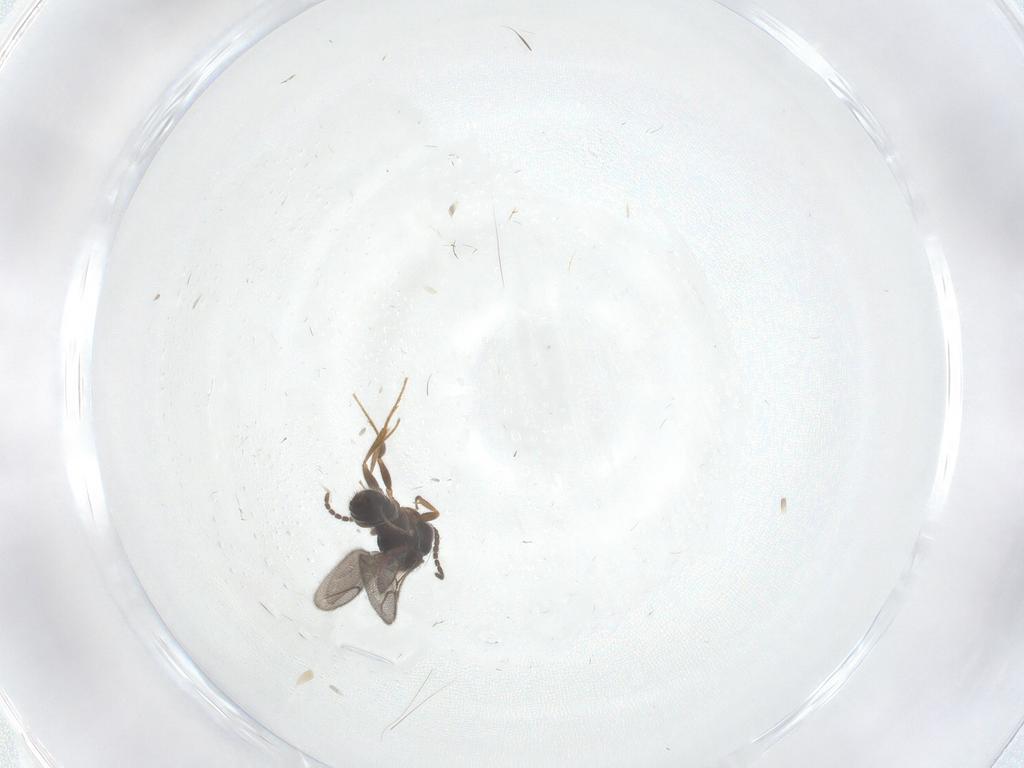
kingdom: Animalia
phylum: Arthropoda
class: Insecta
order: Hymenoptera
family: Bethylidae
